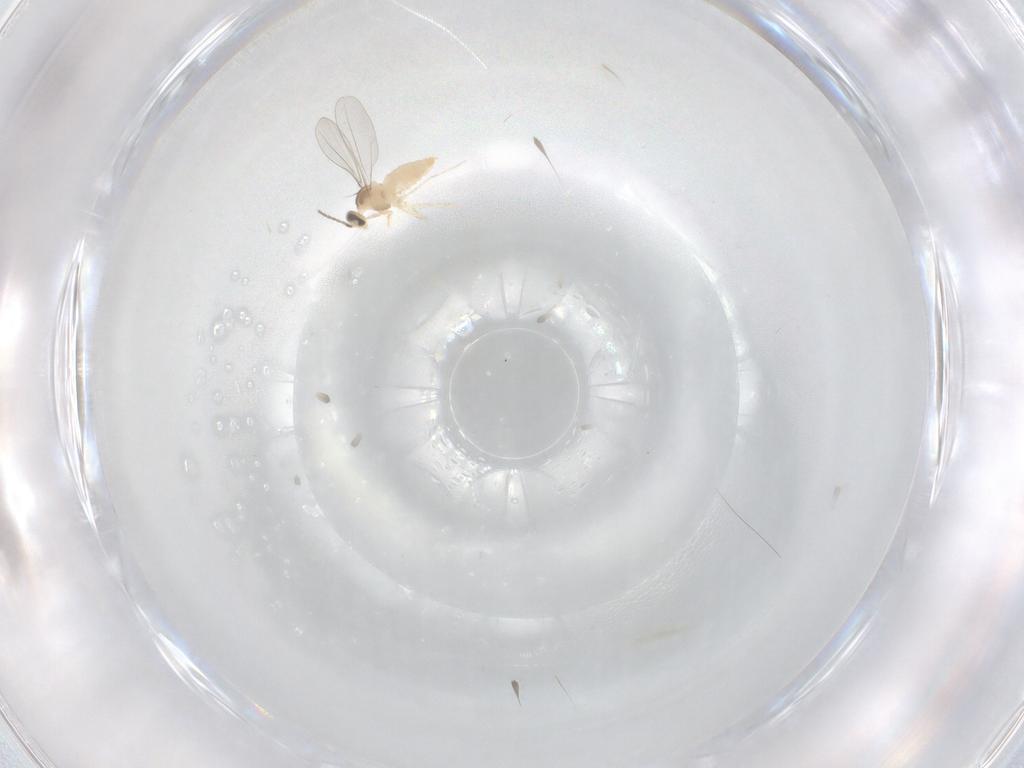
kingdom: Animalia
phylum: Arthropoda
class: Insecta
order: Diptera
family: Cecidomyiidae
